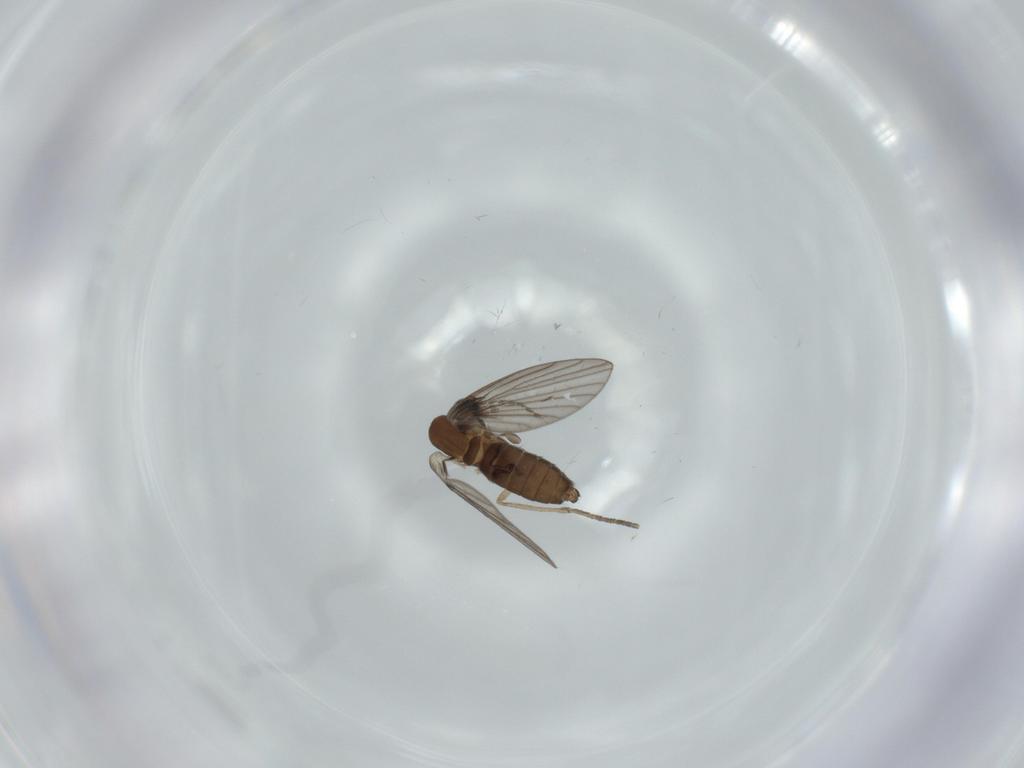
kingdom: Animalia
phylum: Arthropoda
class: Insecta
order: Diptera
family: Psychodidae
